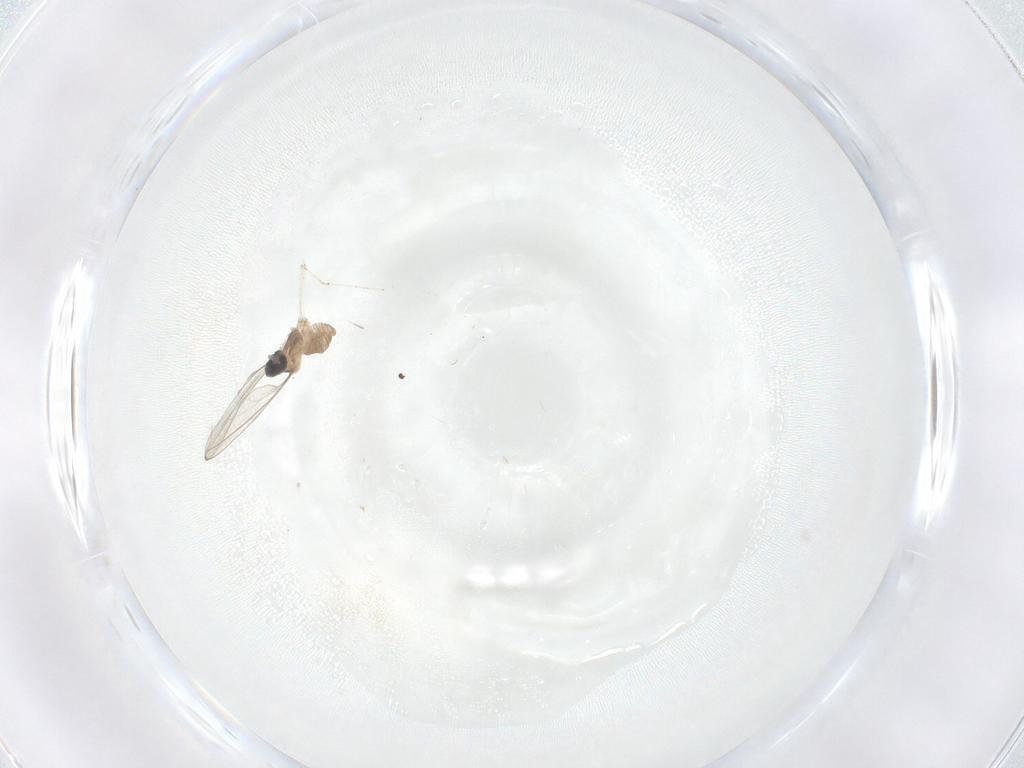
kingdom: Animalia
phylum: Arthropoda
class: Insecta
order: Diptera
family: Cecidomyiidae
